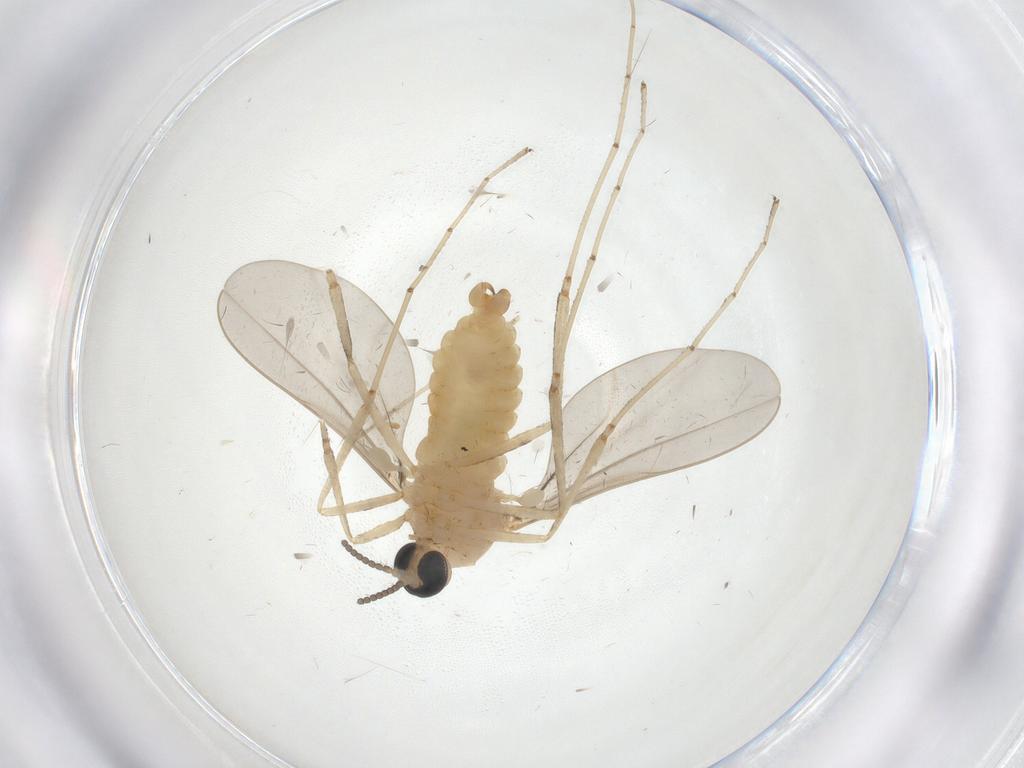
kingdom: Animalia
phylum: Arthropoda
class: Insecta
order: Diptera
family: Cecidomyiidae
